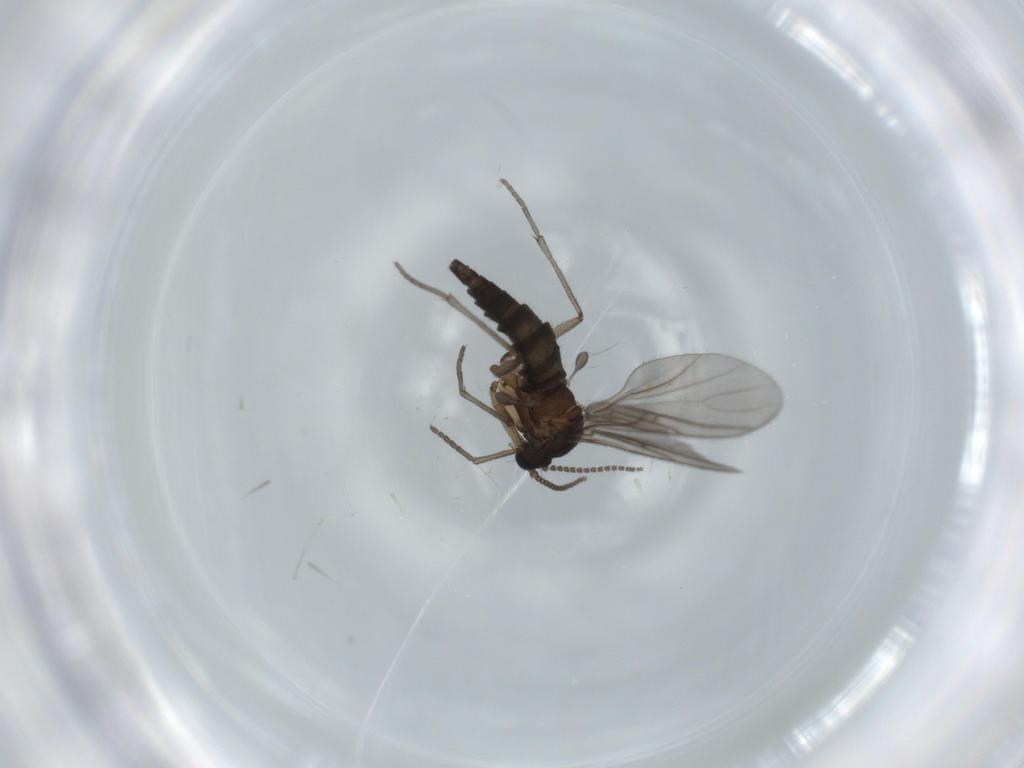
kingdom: Animalia
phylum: Arthropoda
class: Insecta
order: Diptera
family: Sciaridae
